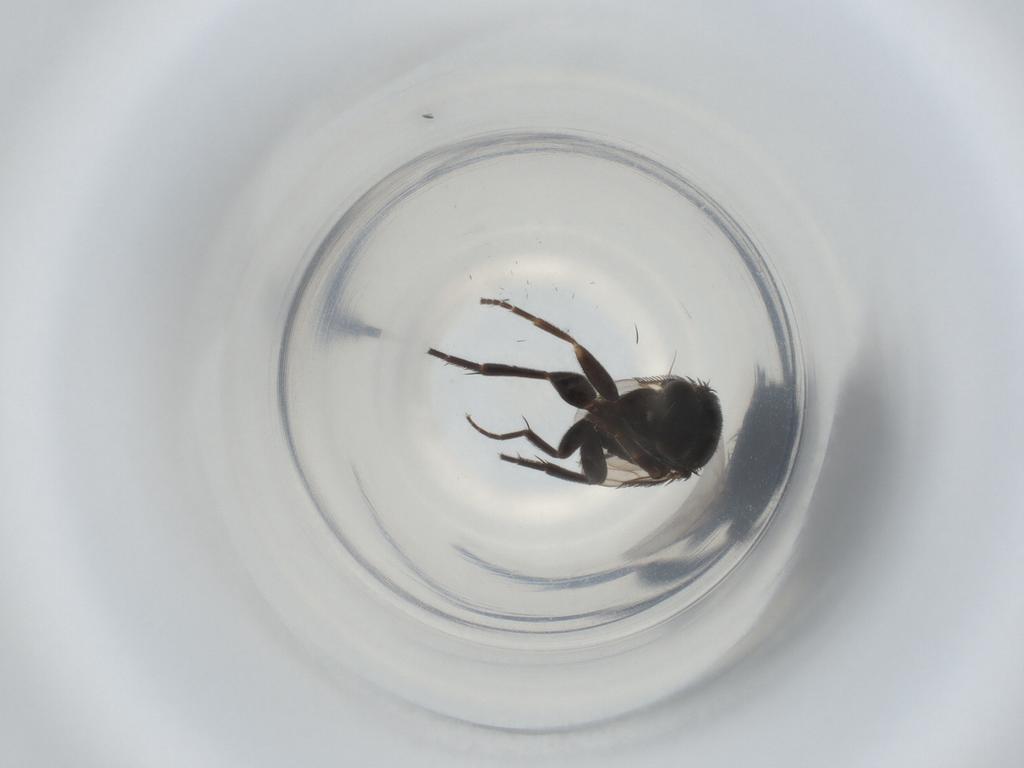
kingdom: Animalia
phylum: Arthropoda
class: Insecta
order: Diptera
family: Phoridae
